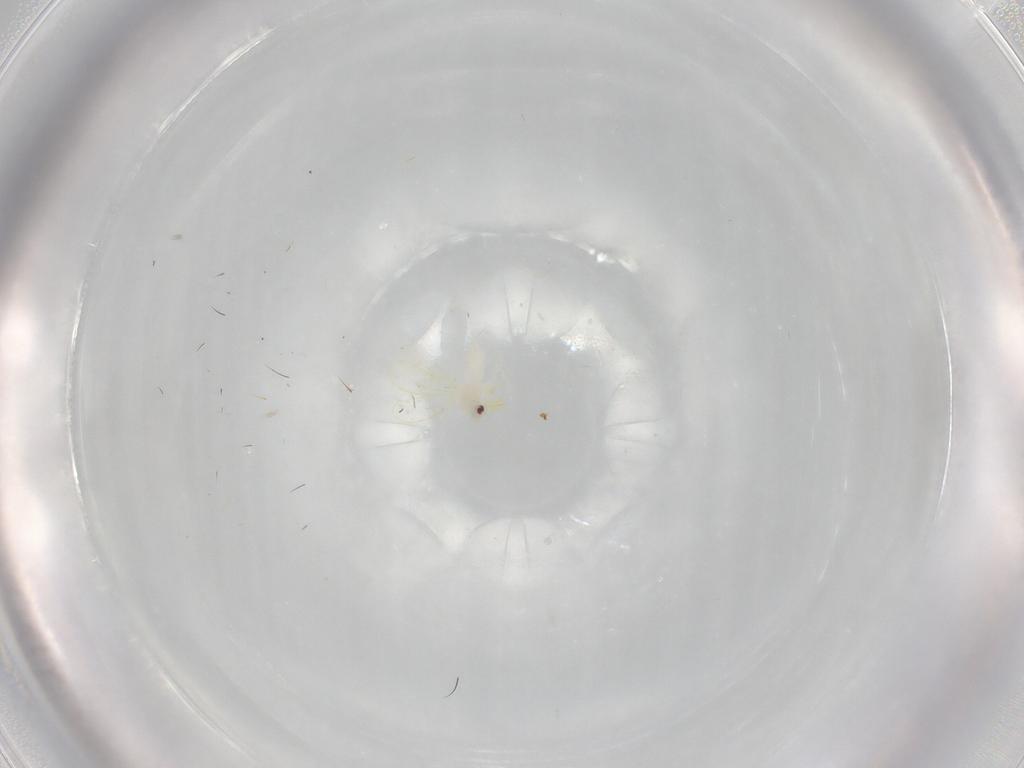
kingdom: Animalia
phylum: Arthropoda
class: Insecta
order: Hemiptera
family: Aleyrodidae
